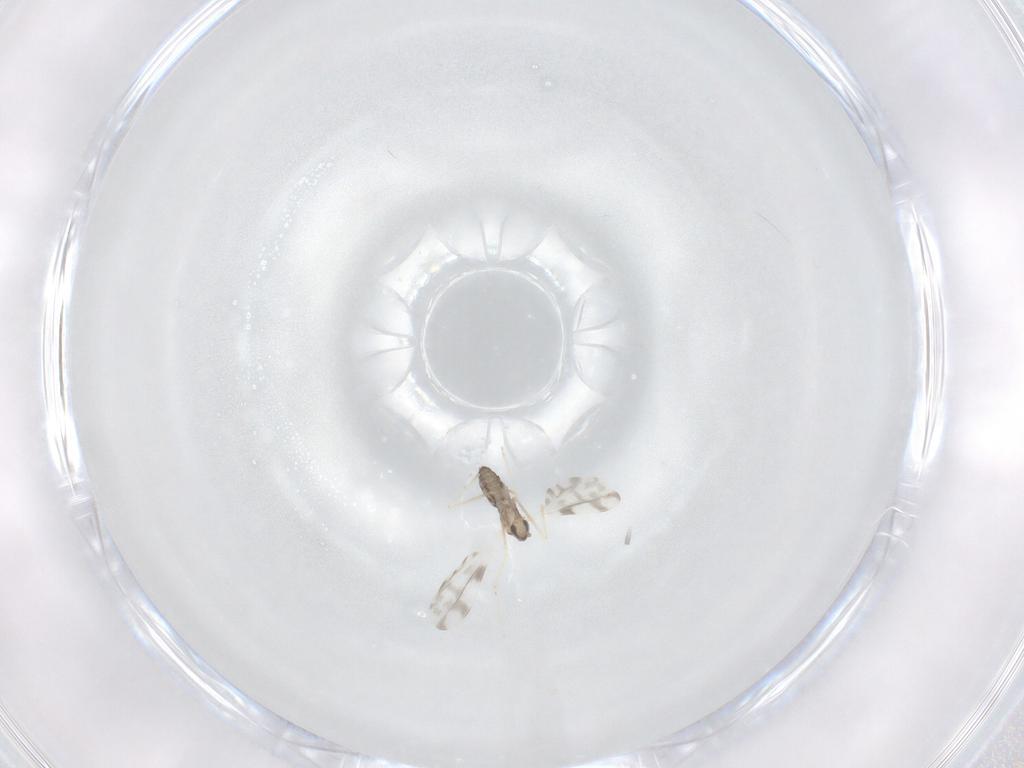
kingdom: Animalia
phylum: Arthropoda
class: Insecta
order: Diptera
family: Cecidomyiidae
